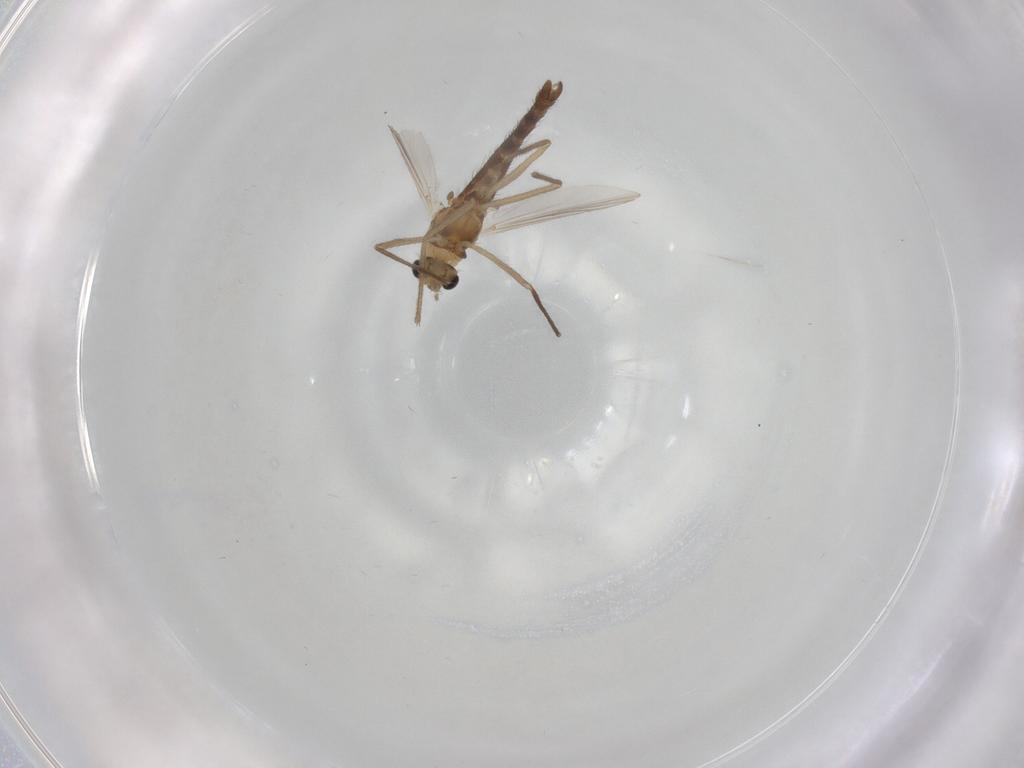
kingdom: Animalia
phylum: Arthropoda
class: Insecta
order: Diptera
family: Chironomidae
